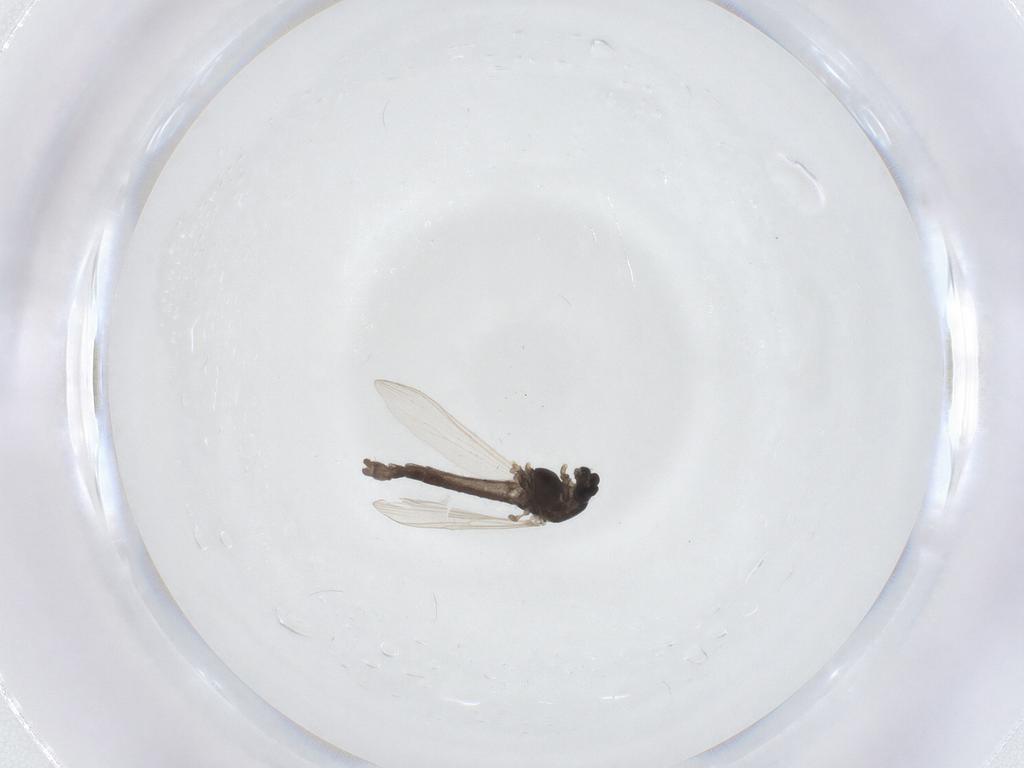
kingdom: Animalia
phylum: Arthropoda
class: Insecta
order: Diptera
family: Chironomidae
